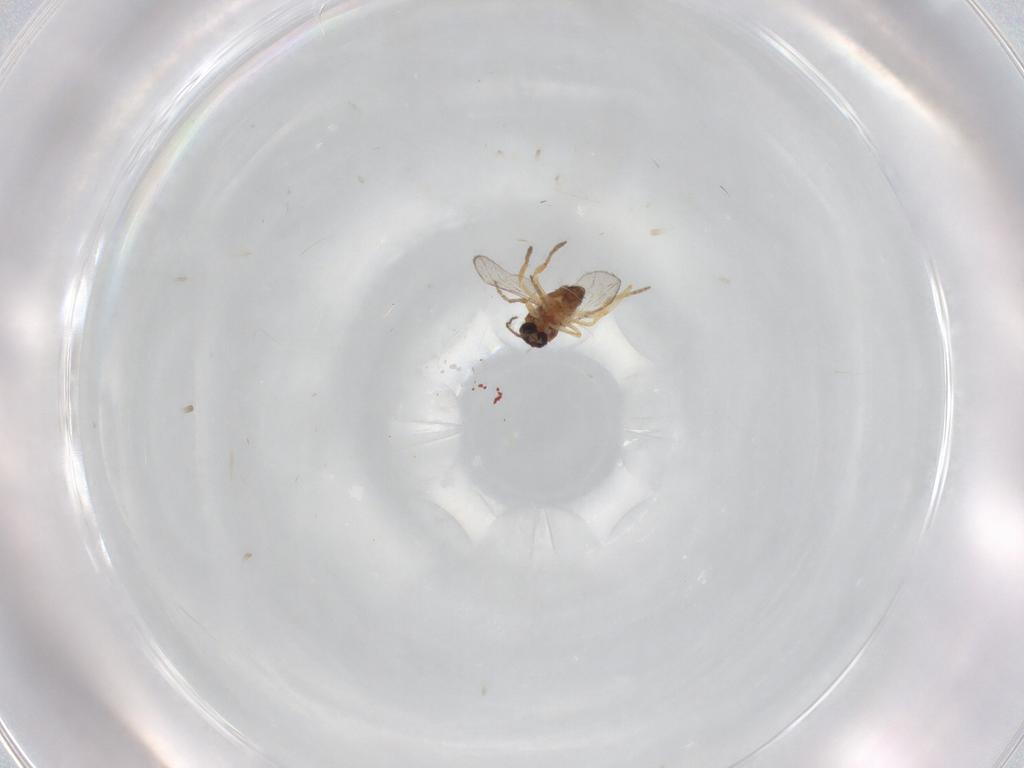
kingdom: Animalia
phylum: Arthropoda
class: Insecta
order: Diptera
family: Ceratopogonidae
